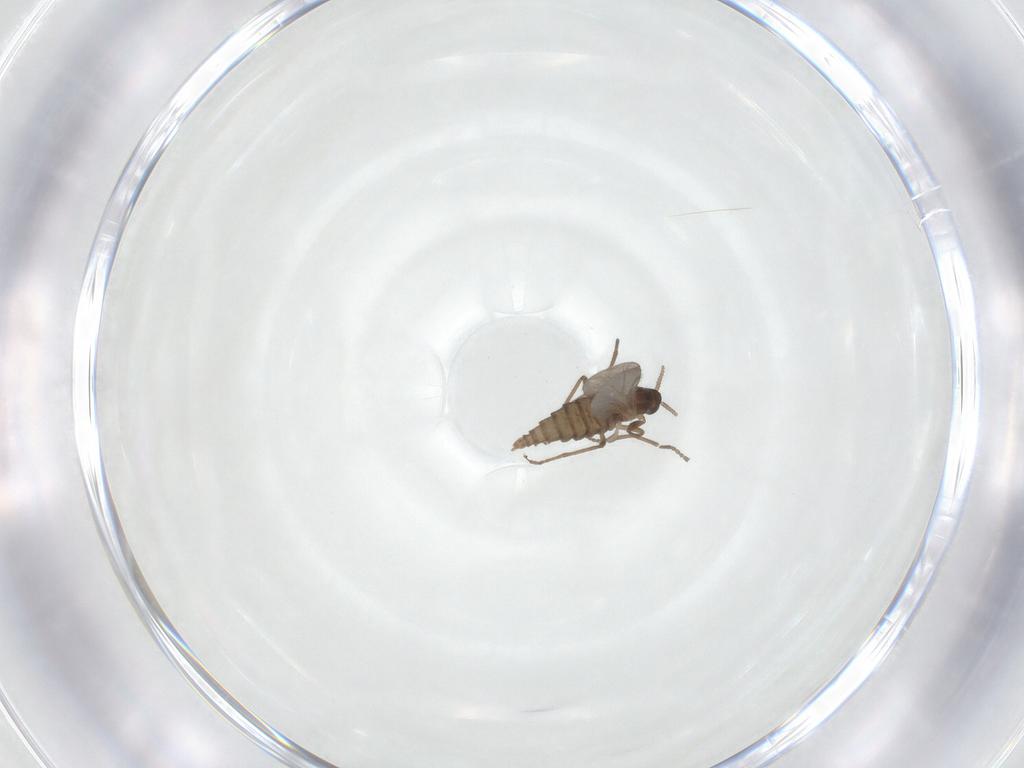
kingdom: Animalia
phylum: Arthropoda
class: Insecta
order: Diptera
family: Cecidomyiidae
